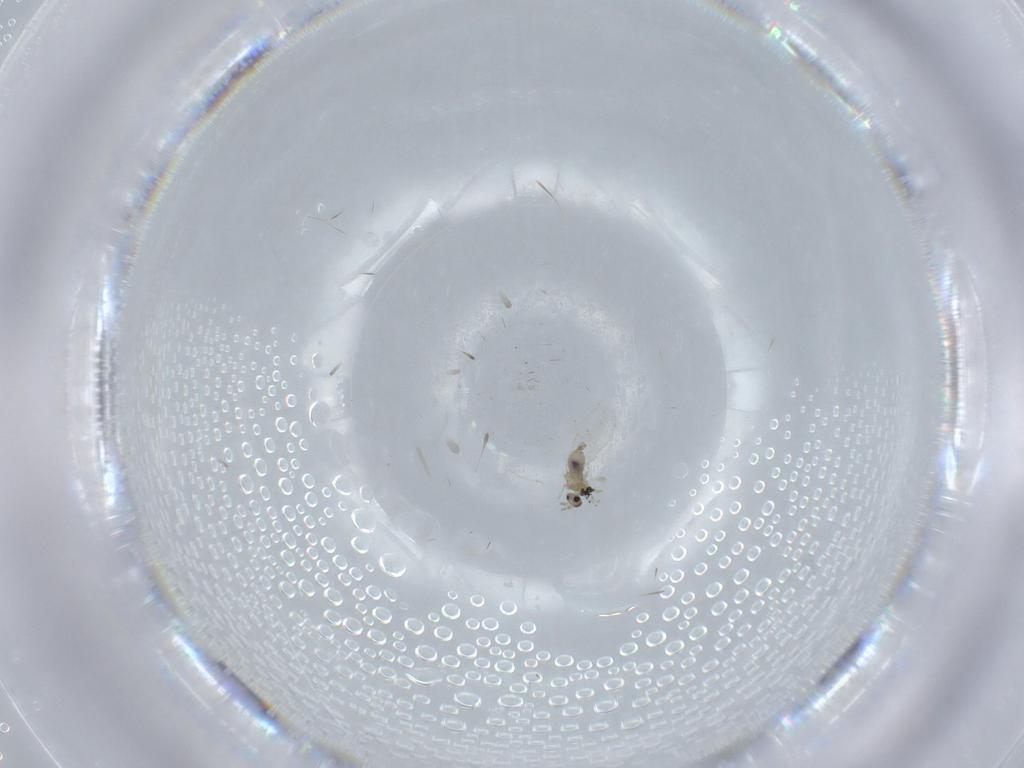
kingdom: Animalia
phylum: Arthropoda
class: Insecta
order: Diptera
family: Cecidomyiidae
